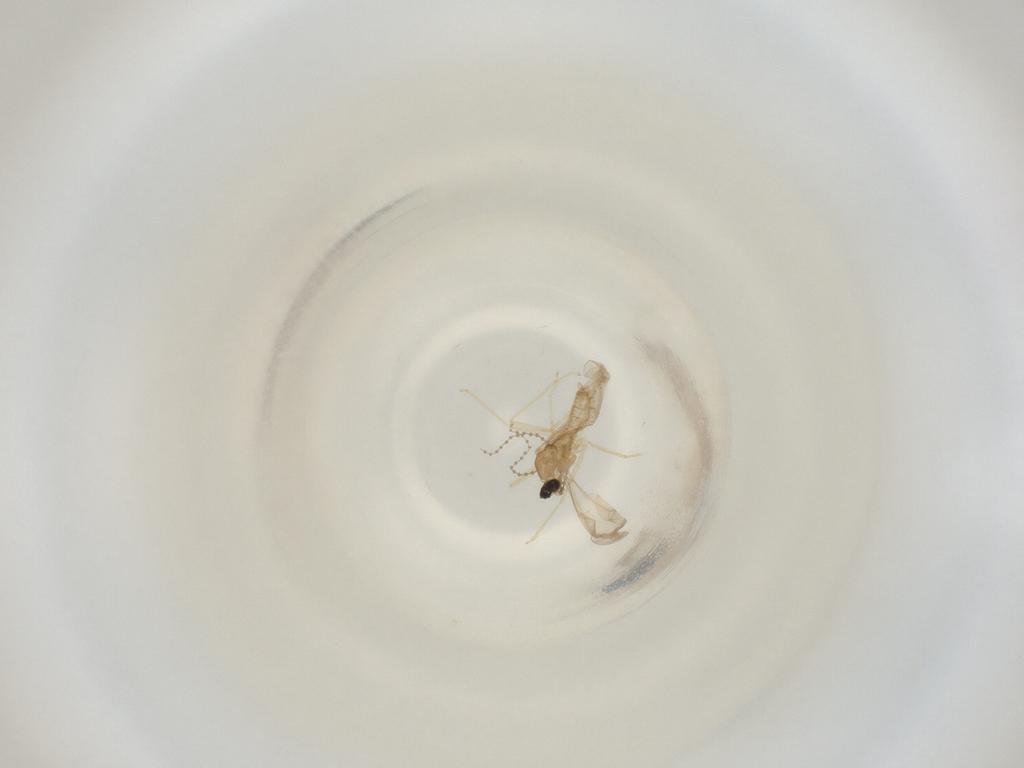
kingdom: Animalia
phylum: Arthropoda
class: Insecta
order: Diptera
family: Cecidomyiidae
